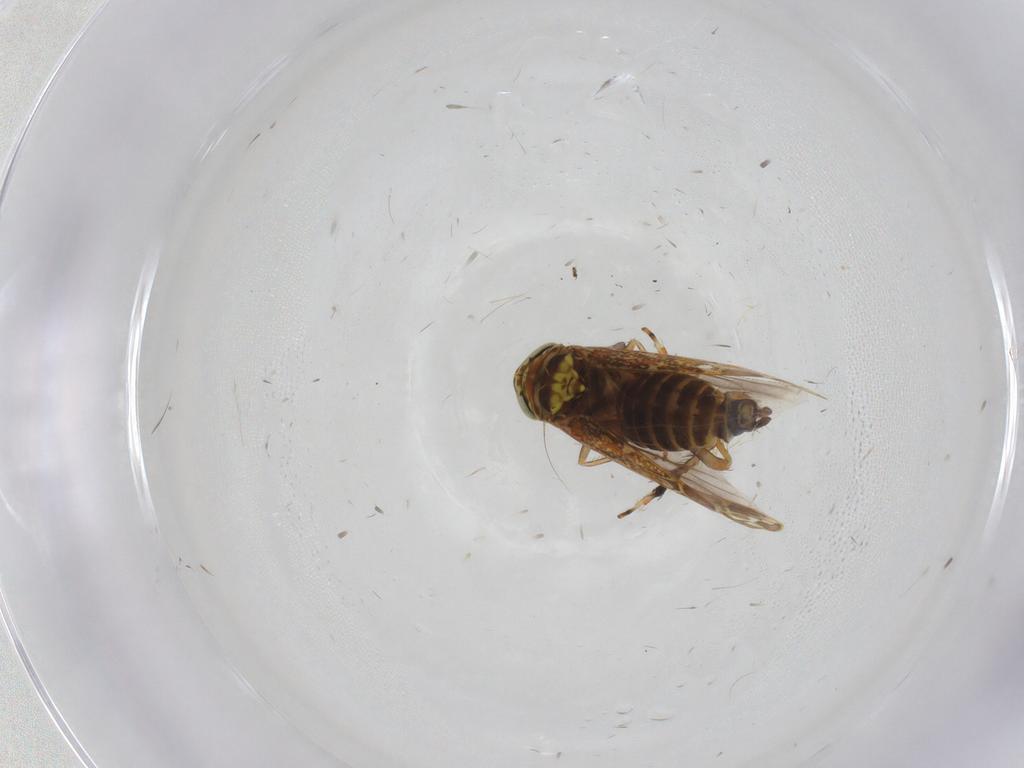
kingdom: Animalia
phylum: Arthropoda
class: Insecta
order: Hemiptera
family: Cicadellidae
